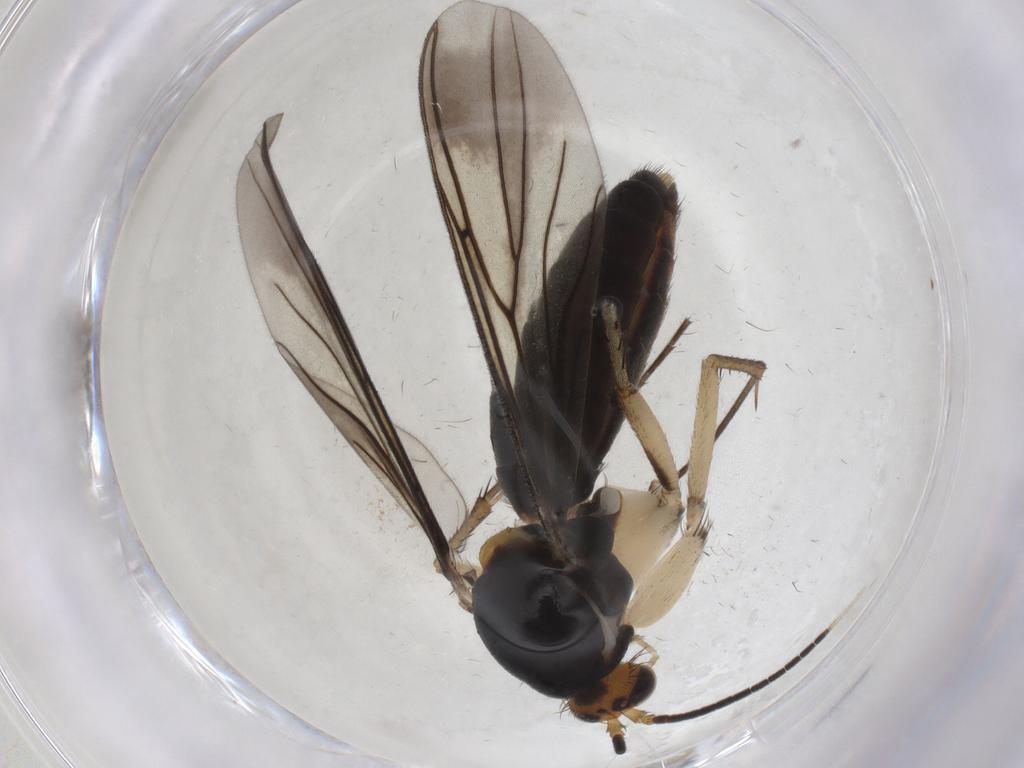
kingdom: Animalia
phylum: Arthropoda
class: Insecta
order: Diptera
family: Mycetophilidae
